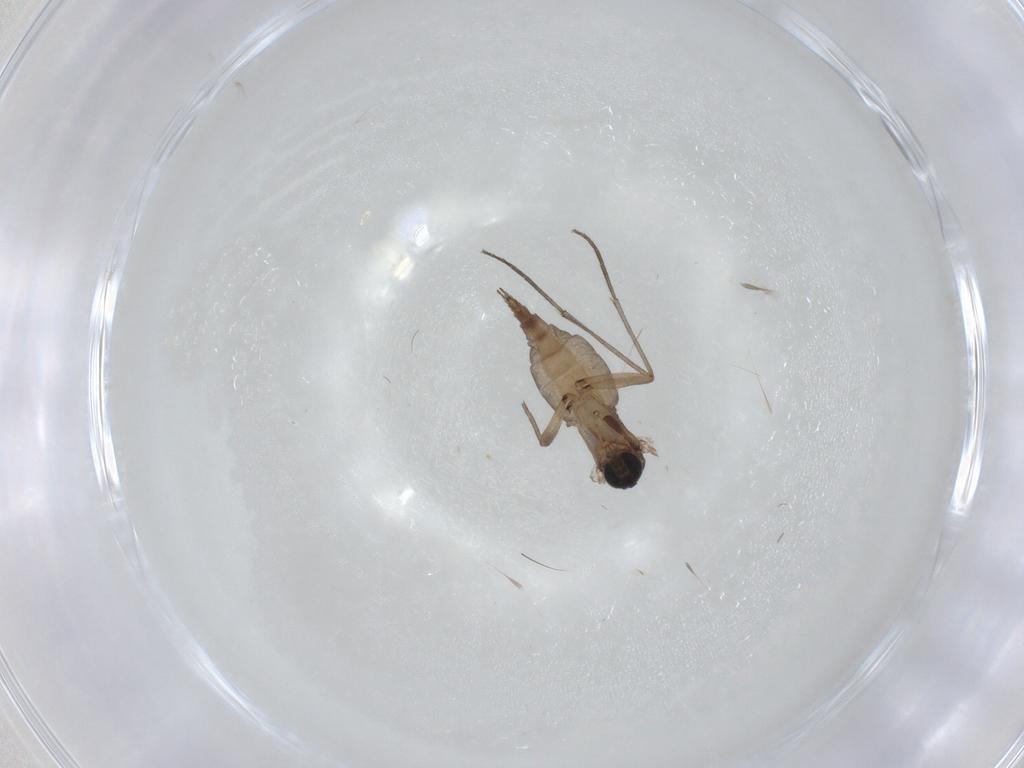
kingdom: Animalia
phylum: Arthropoda
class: Insecta
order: Diptera
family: Sciaridae
